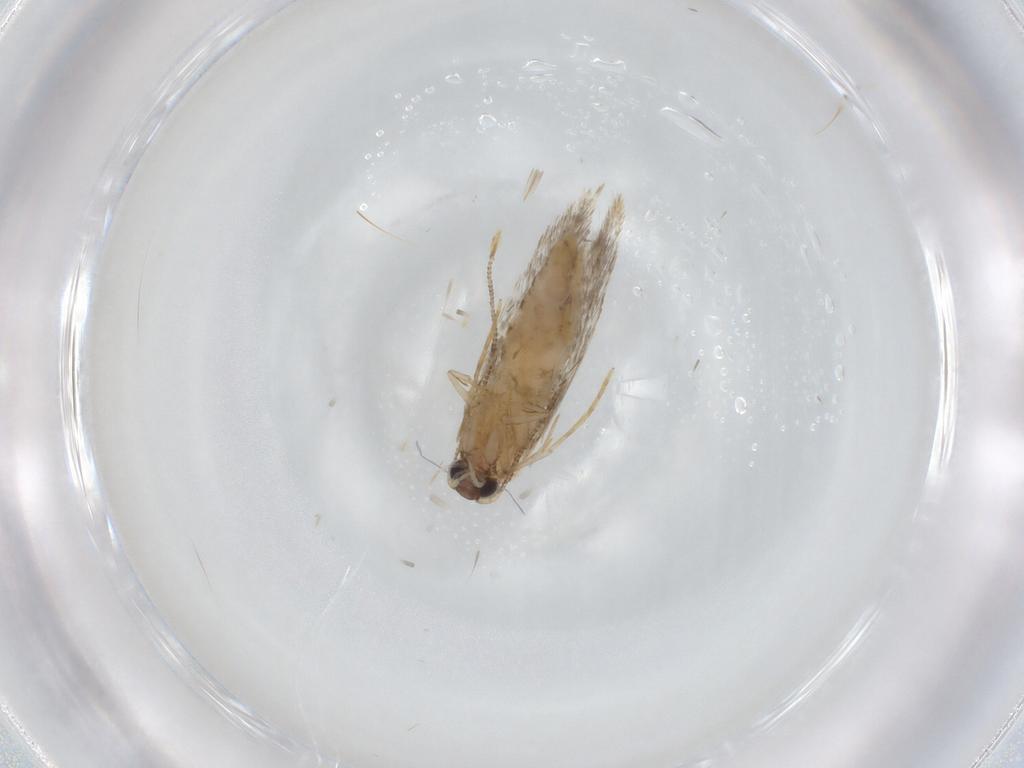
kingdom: Animalia
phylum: Arthropoda
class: Insecta
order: Lepidoptera
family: Tineidae
